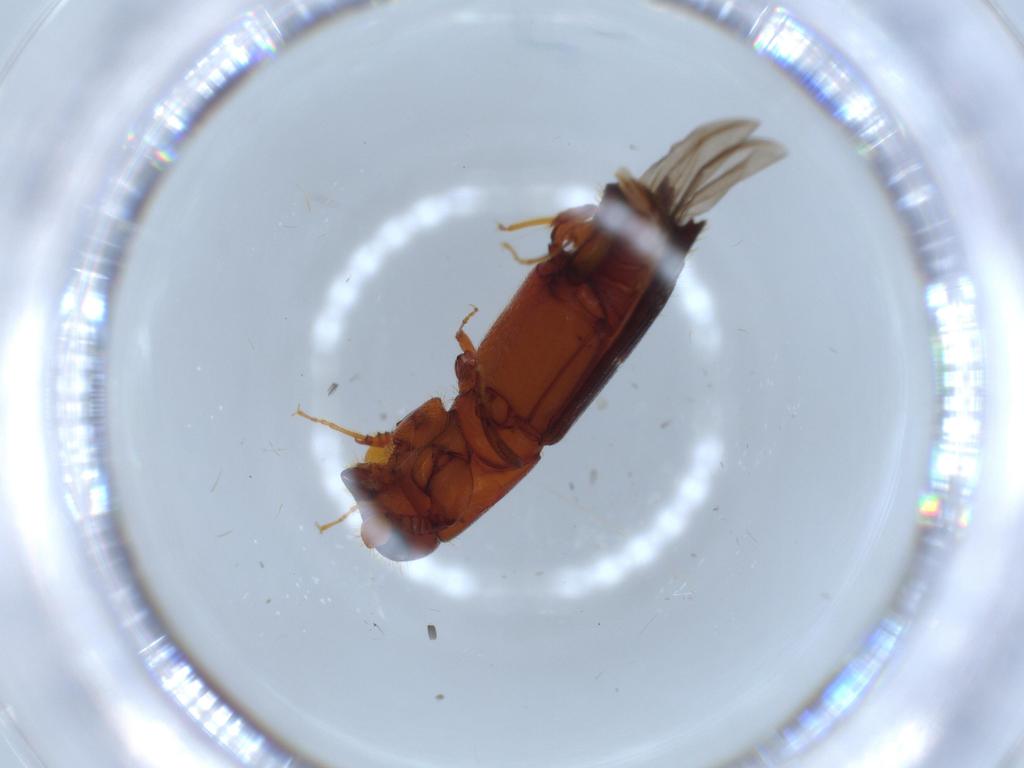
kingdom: Animalia
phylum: Arthropoda
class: Insecta
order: Coleoptera
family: Curculionidae
